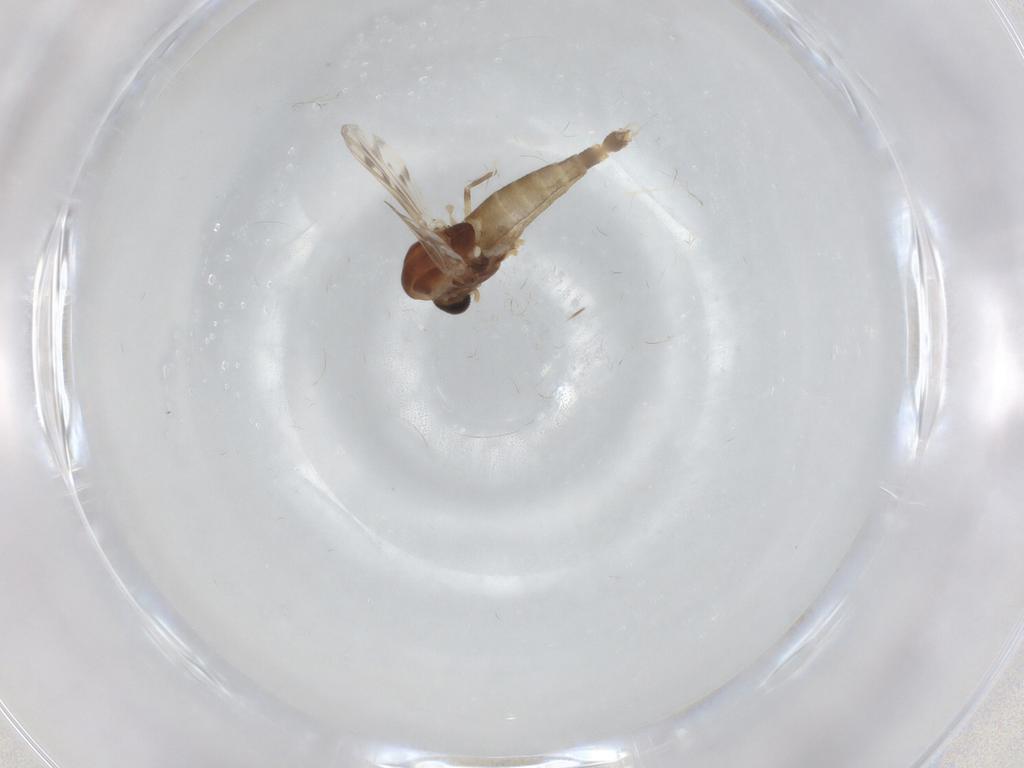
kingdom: Animalia
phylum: Arthropoda
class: Insecta
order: Diptera
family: Chironomidae
